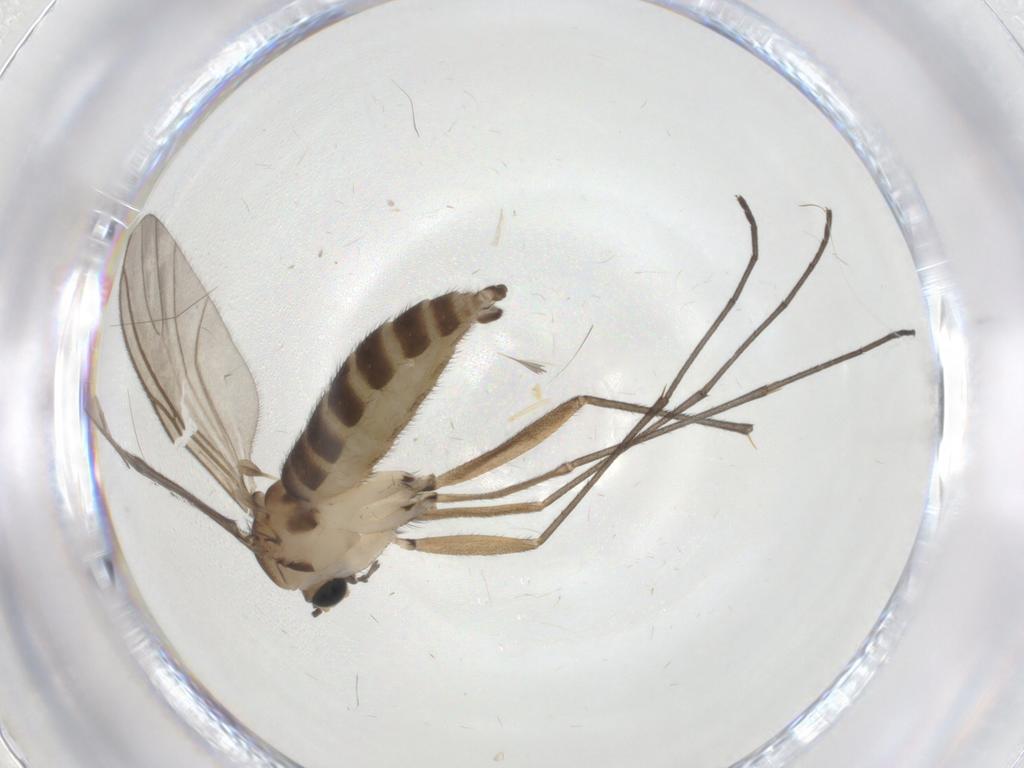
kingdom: Animalia
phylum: Arthropoda
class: Insecta
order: Diptera
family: Sciaridae
